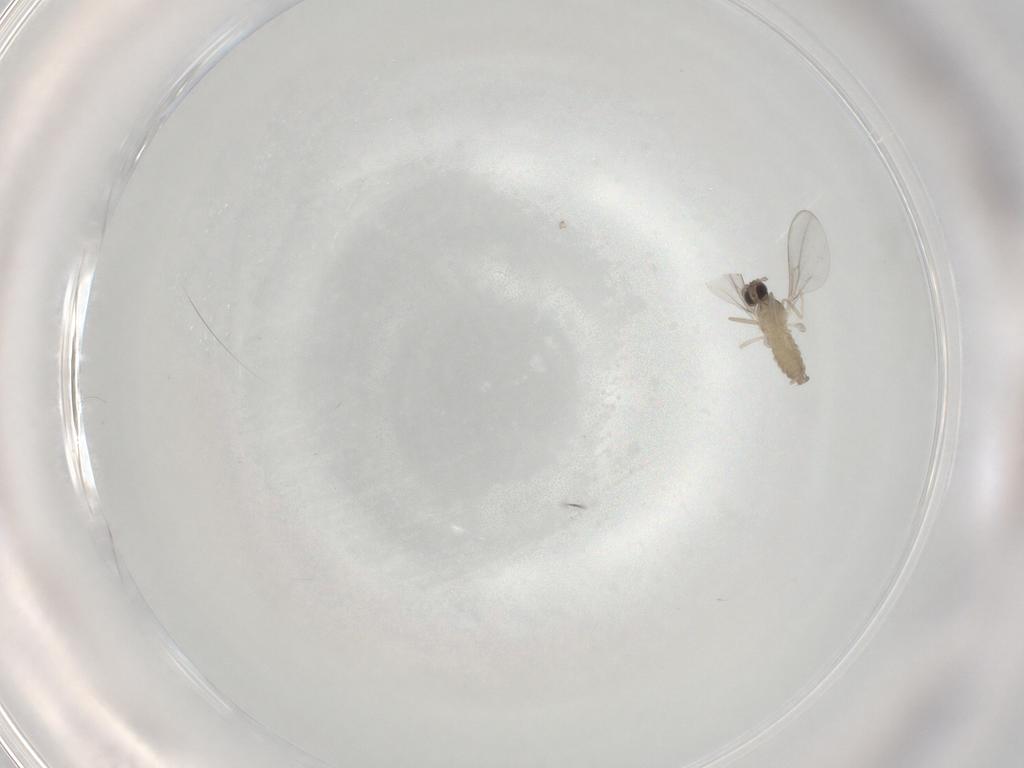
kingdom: Animalia
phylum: Arthropoda
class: Insecta
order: Diptera
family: Cecidomyiidae
